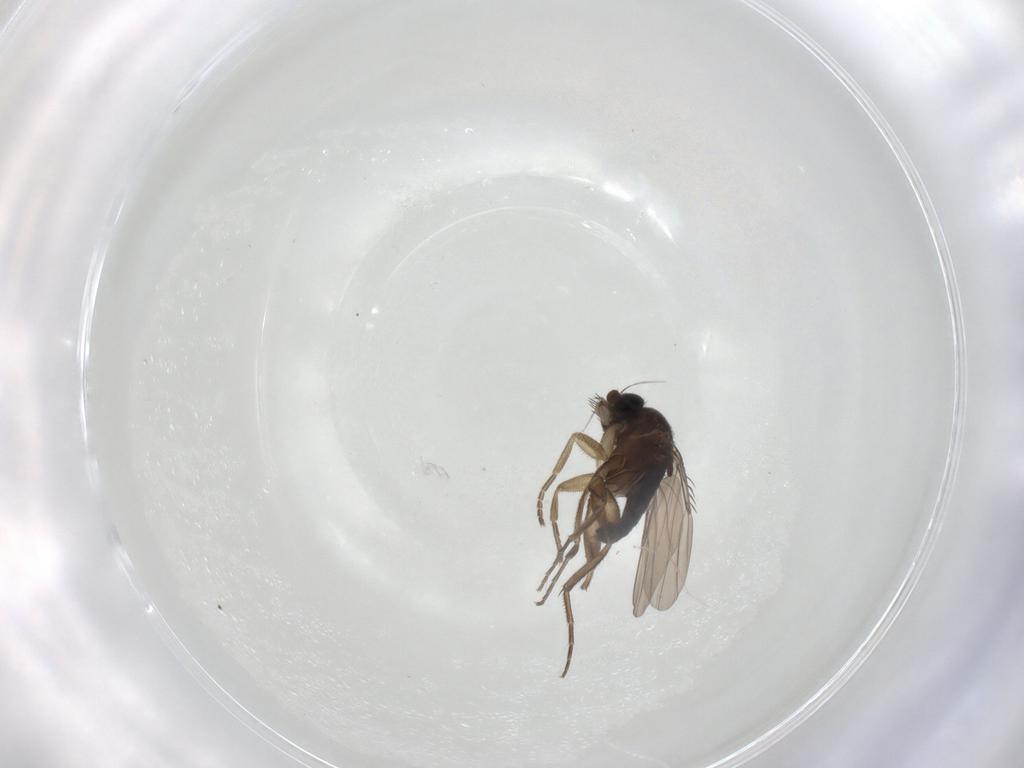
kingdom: Animalia
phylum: Arthropoda
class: Insecta
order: Diptera
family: Phoridae
